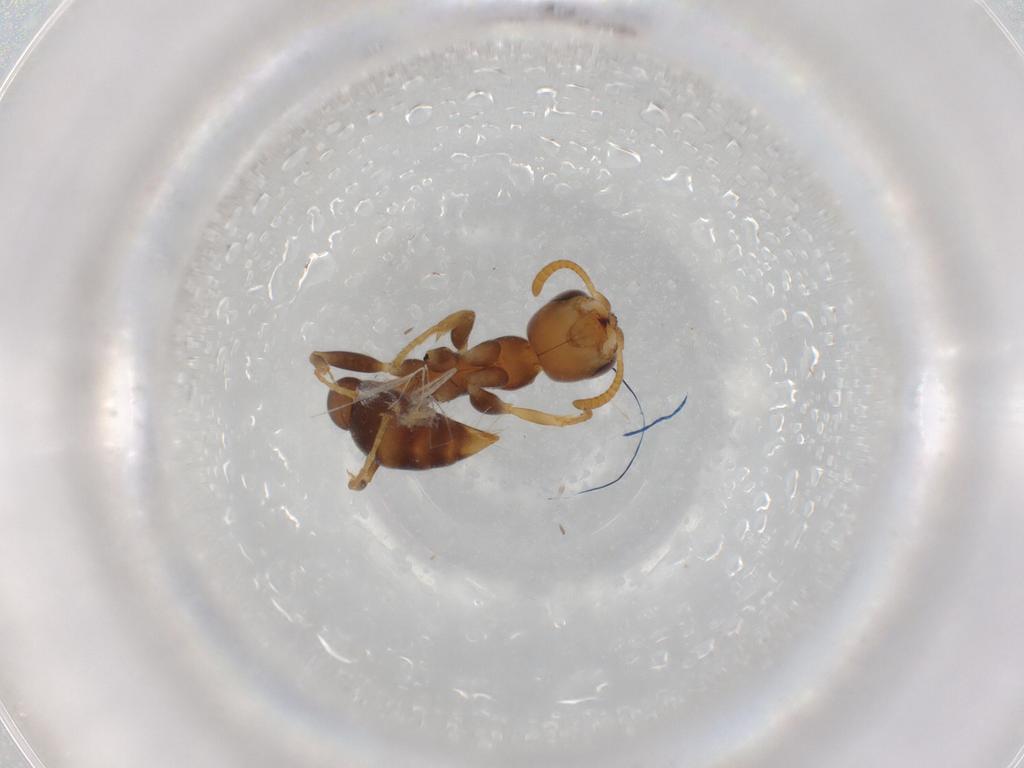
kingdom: Animalia
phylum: Arthropoda
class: Insecta
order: Hymenoptera
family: Formicidae
